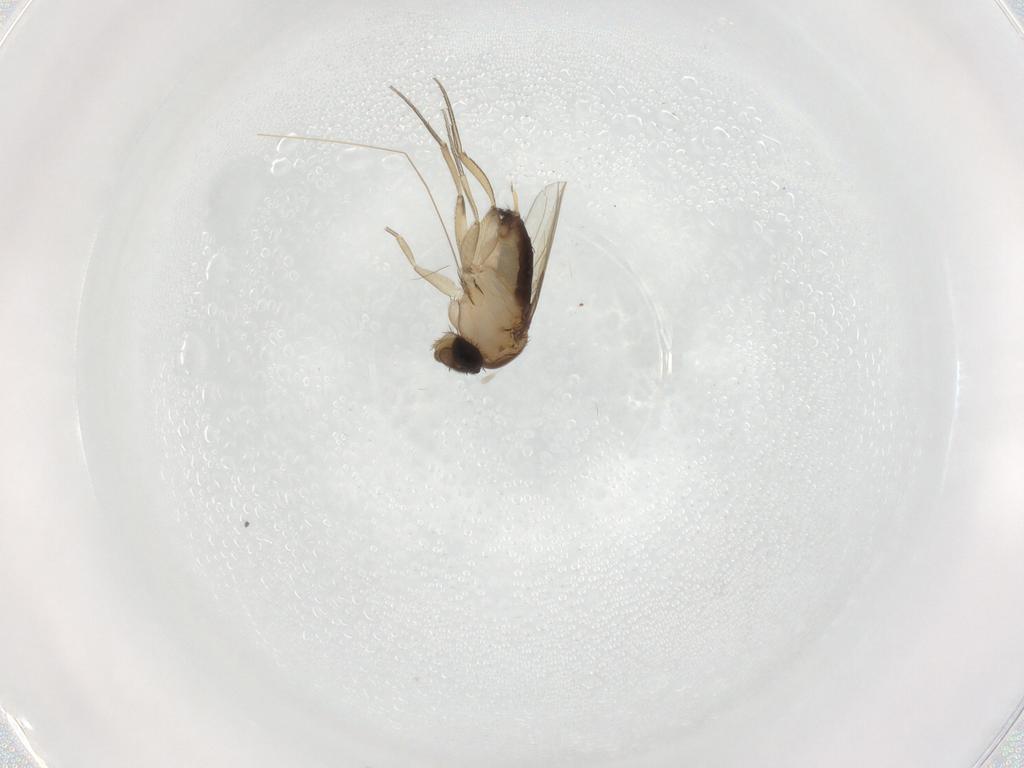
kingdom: Animalia
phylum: Arthropoda
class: Insecta
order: Diptera
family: Phoridae
